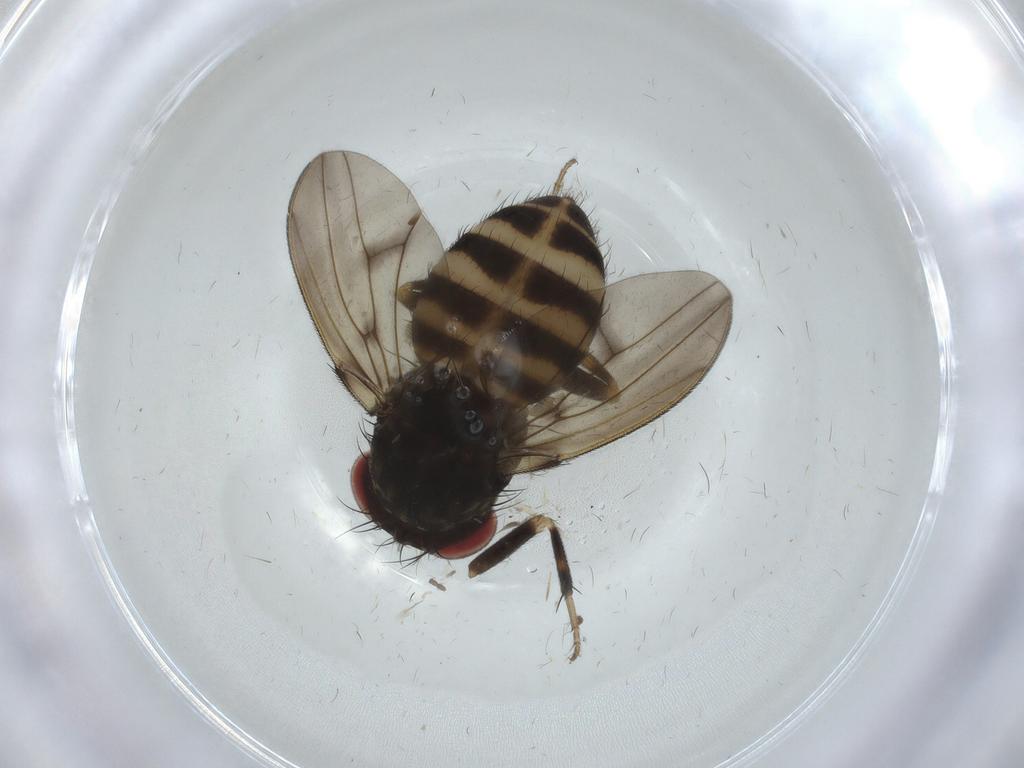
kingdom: Animalia
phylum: Arthropoda
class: Insecta
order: Diptera
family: Drosophilidae
